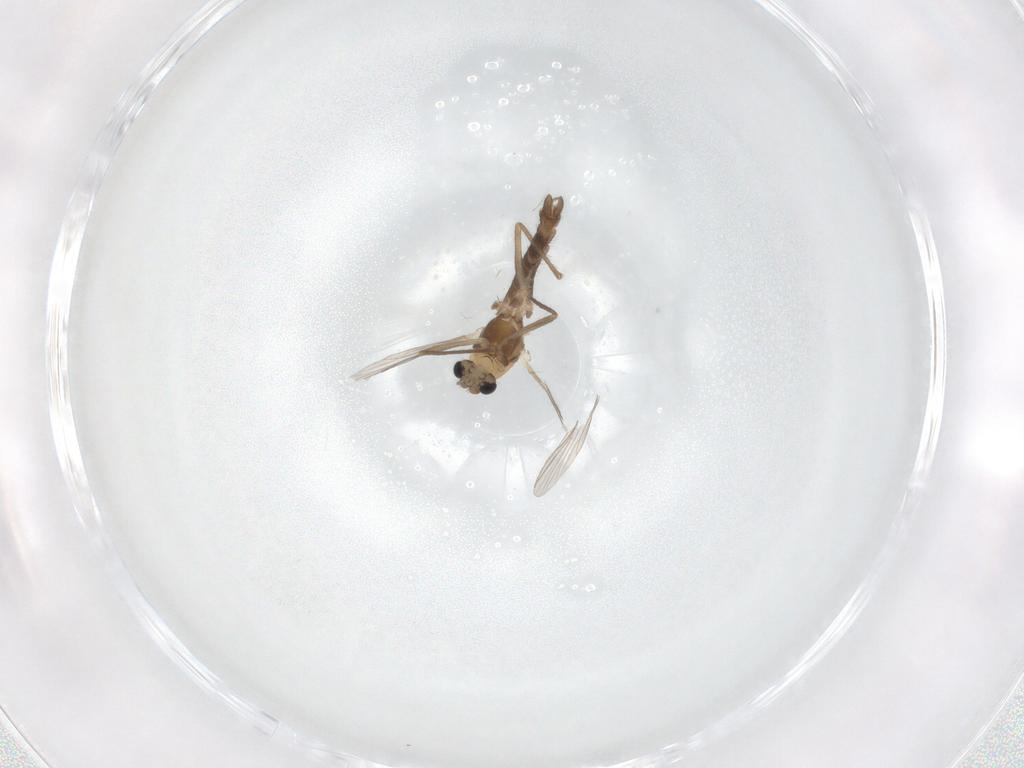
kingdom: Animalia
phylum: Arthropoda
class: Insecta
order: Diptera
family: Chironomidae
